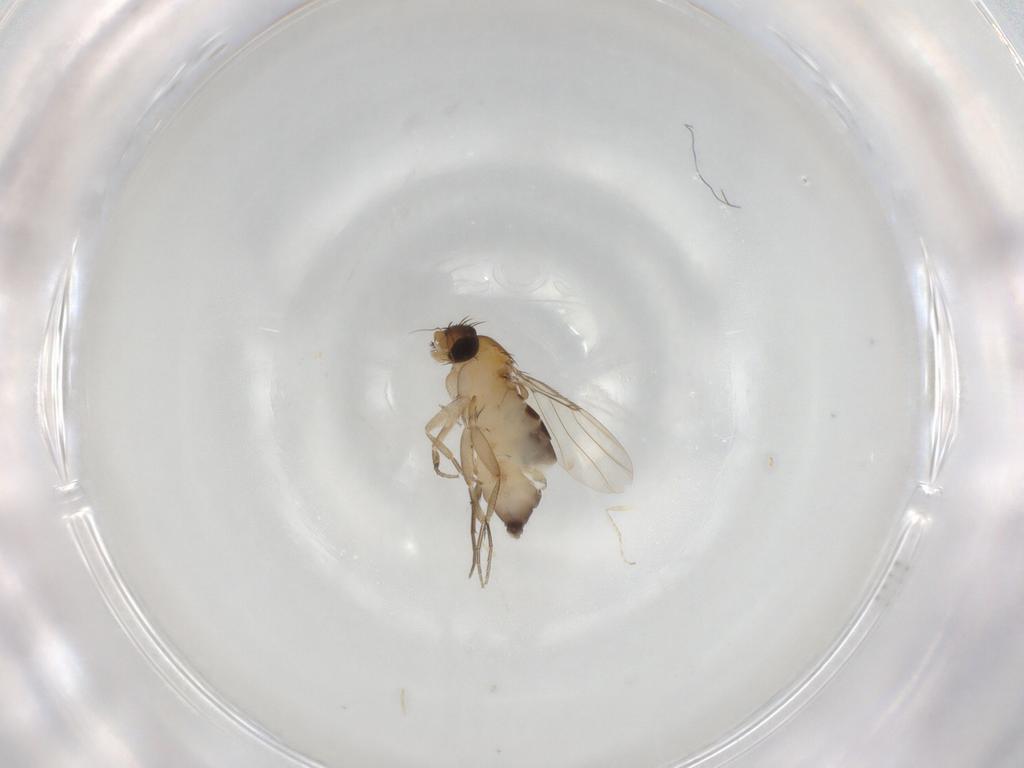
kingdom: Animalia
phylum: Arthropoda
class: Insecta
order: Diptera
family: Phoridae
